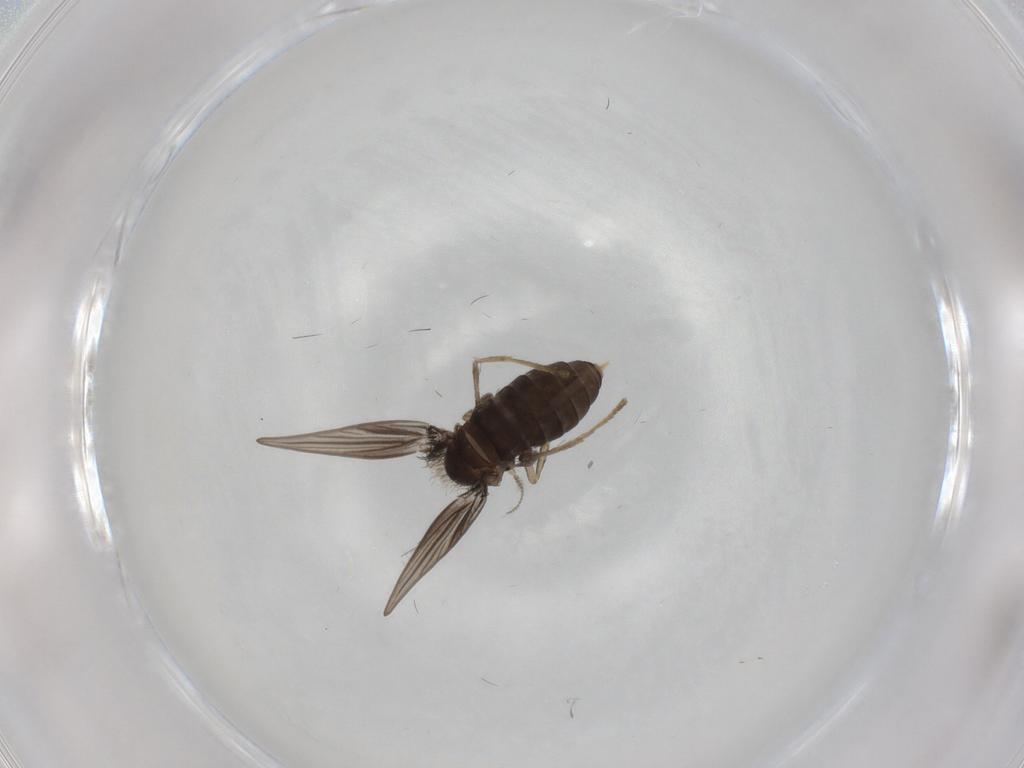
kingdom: Animalia
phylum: Arthropoda
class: Insecta
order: Diptera
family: Psychodidae
